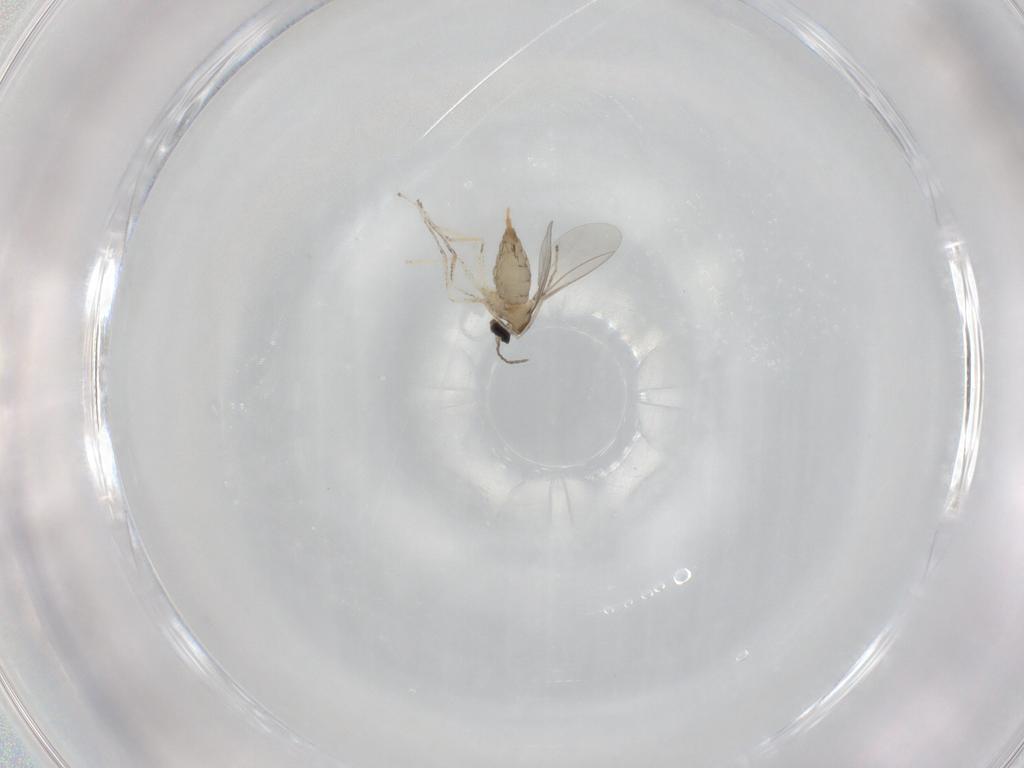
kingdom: Animalia
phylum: Arthropoda
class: Insecta
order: Diptera
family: Cecidomyiidae
